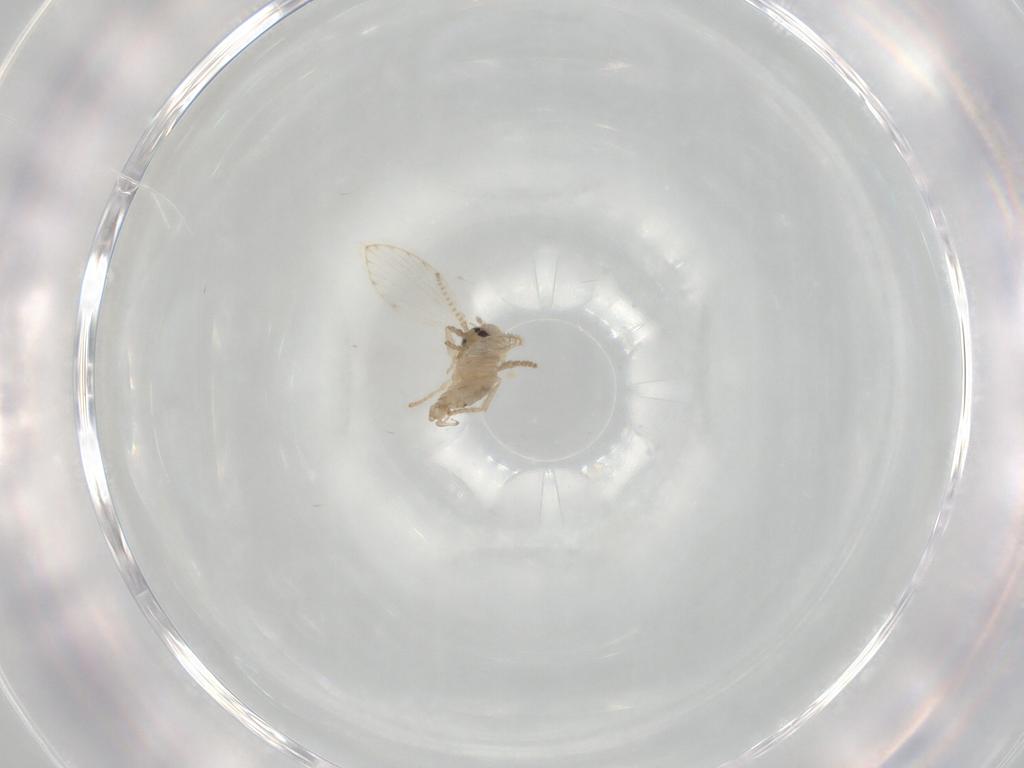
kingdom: Animalia
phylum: Arthropoda
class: Insecta
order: Diptera
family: Psychodidae
